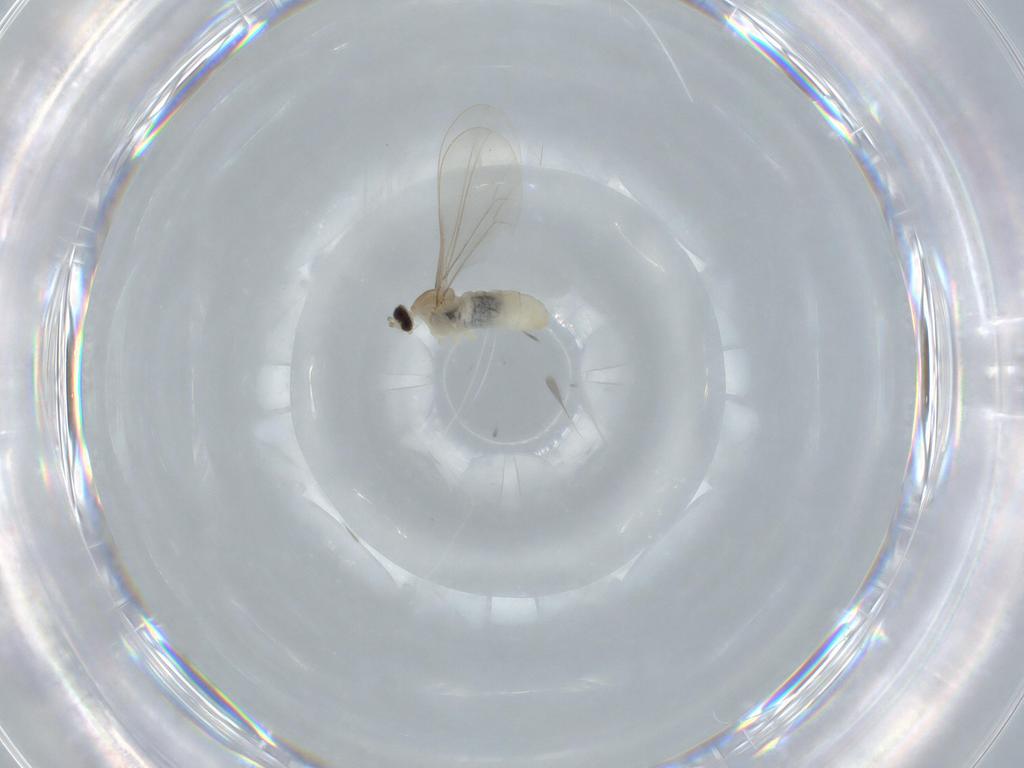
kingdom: Animalia
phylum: Arthropoda
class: Insecta
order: Diptera
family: Cecidomyiidae
